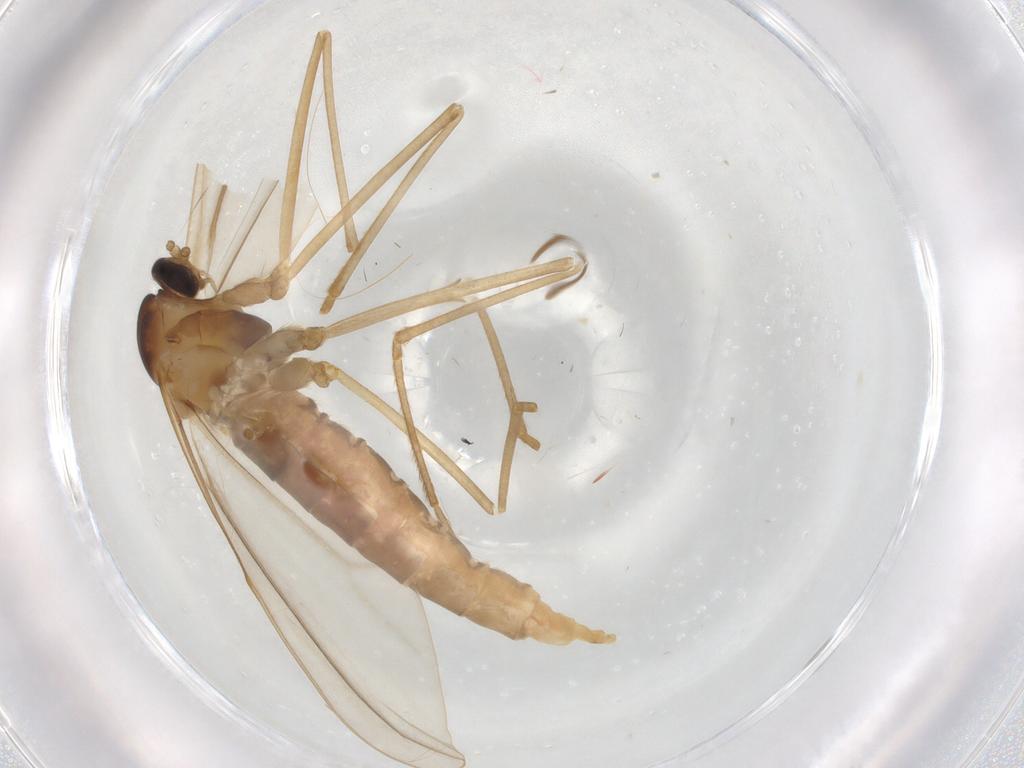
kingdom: Animalia
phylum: Arthropoda
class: Insecta
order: Diptera
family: Cecidomyiidae
